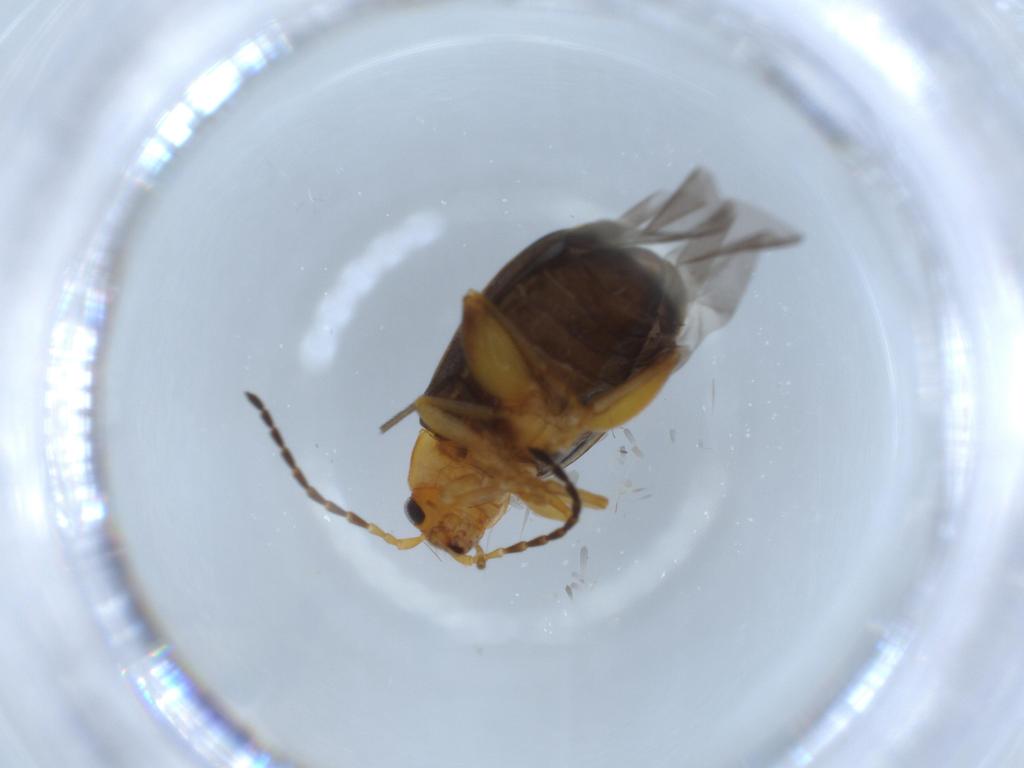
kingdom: Animalia
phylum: Arthropoda
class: Insecta
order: Coleoptera
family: Chrysomelidae
